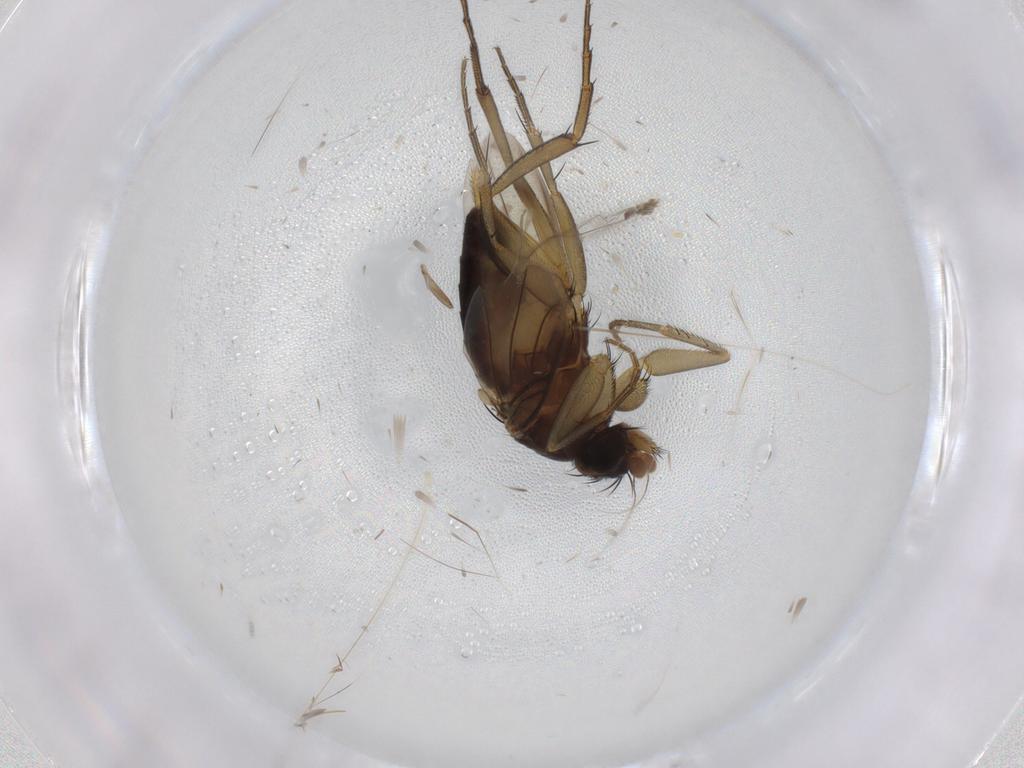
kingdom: Animalia
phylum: Arthropoda
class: Insecta
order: Diptera
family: Phoridae
